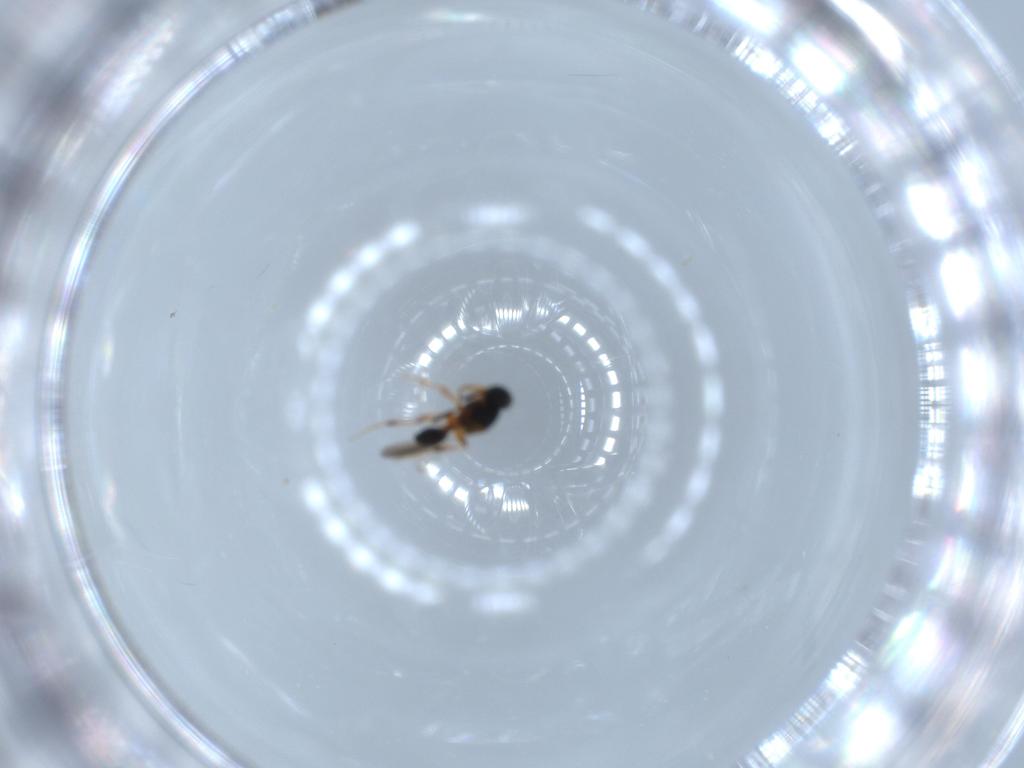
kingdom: Animalia
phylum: Arthropoda
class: Insecta
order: Hymenoptera
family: Platygastridae
